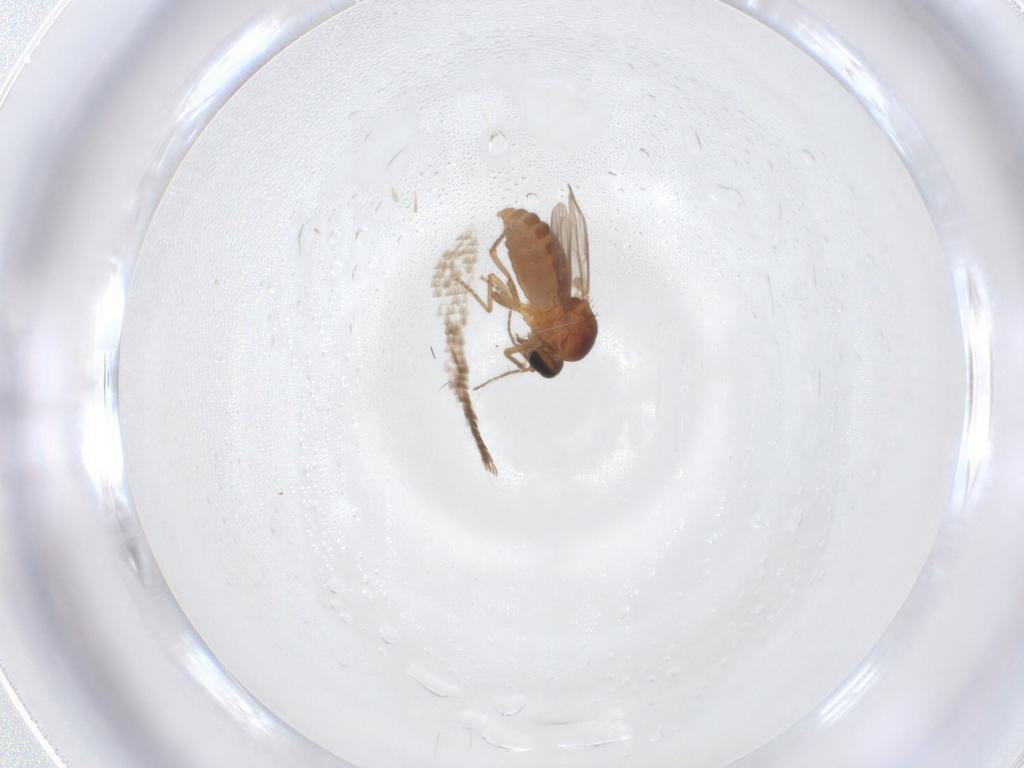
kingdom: Animalia
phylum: Arthropoda
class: Insecta
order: Diptera
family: Ceratopogonidae
